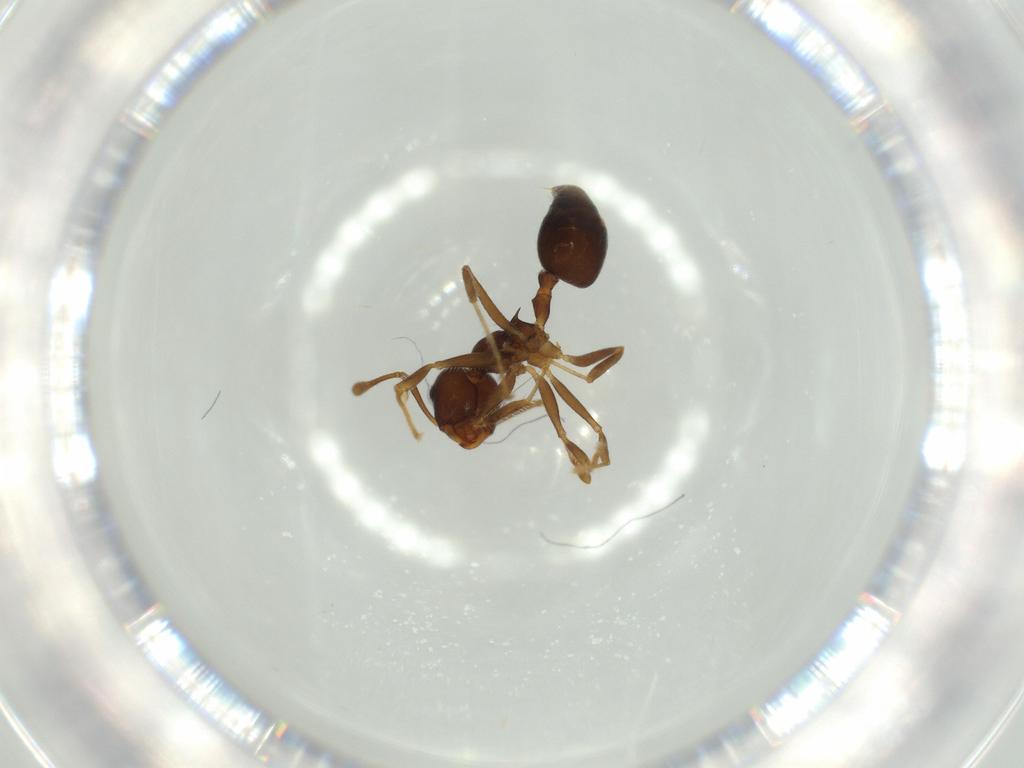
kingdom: Animalia
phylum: Arthropoda
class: Insecta
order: Hymenoptera
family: Formicidae
